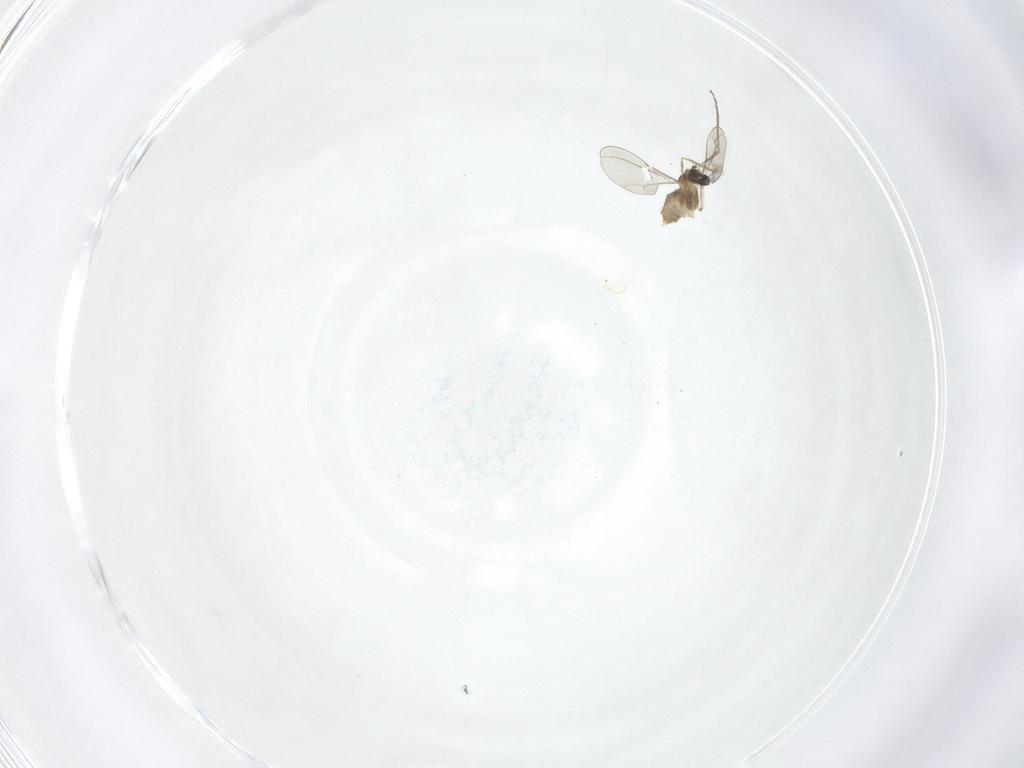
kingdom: Animalia
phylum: Arthropoda
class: Insecta
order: Diptera
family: Cecidomyiidae
